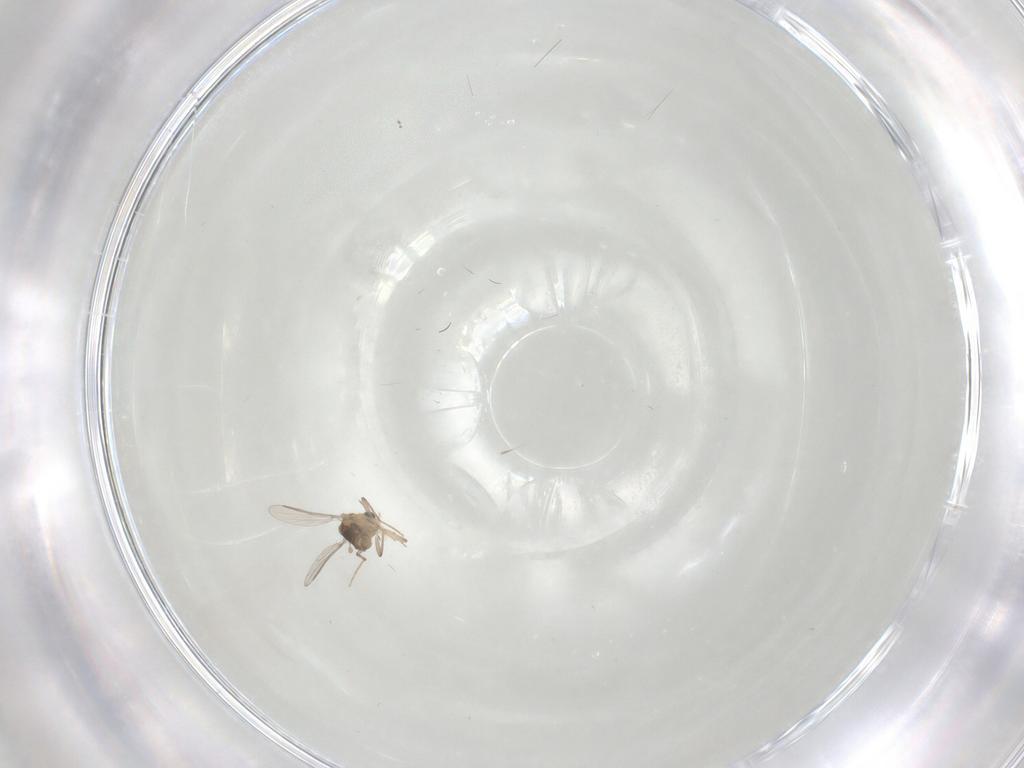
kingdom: Animalia
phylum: Arthropoda
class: Insecta
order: Diptera
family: Chironomidae
